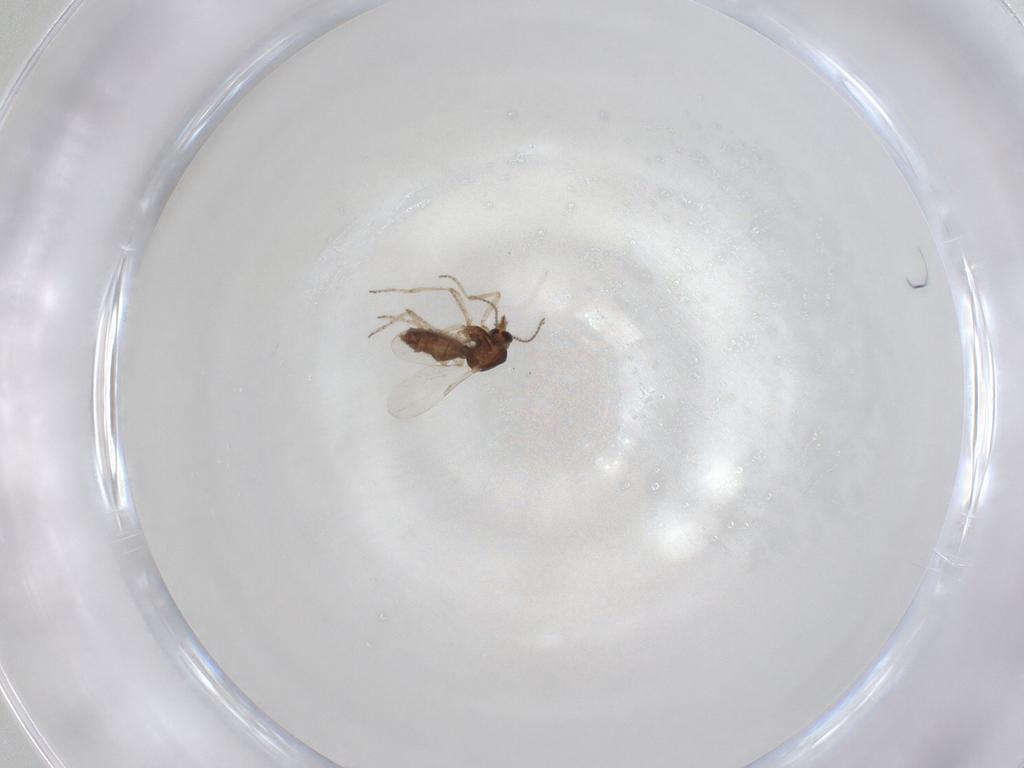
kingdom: Animalia
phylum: Arthropoda
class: Insecta
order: Diptera
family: Ceratopogonidae
